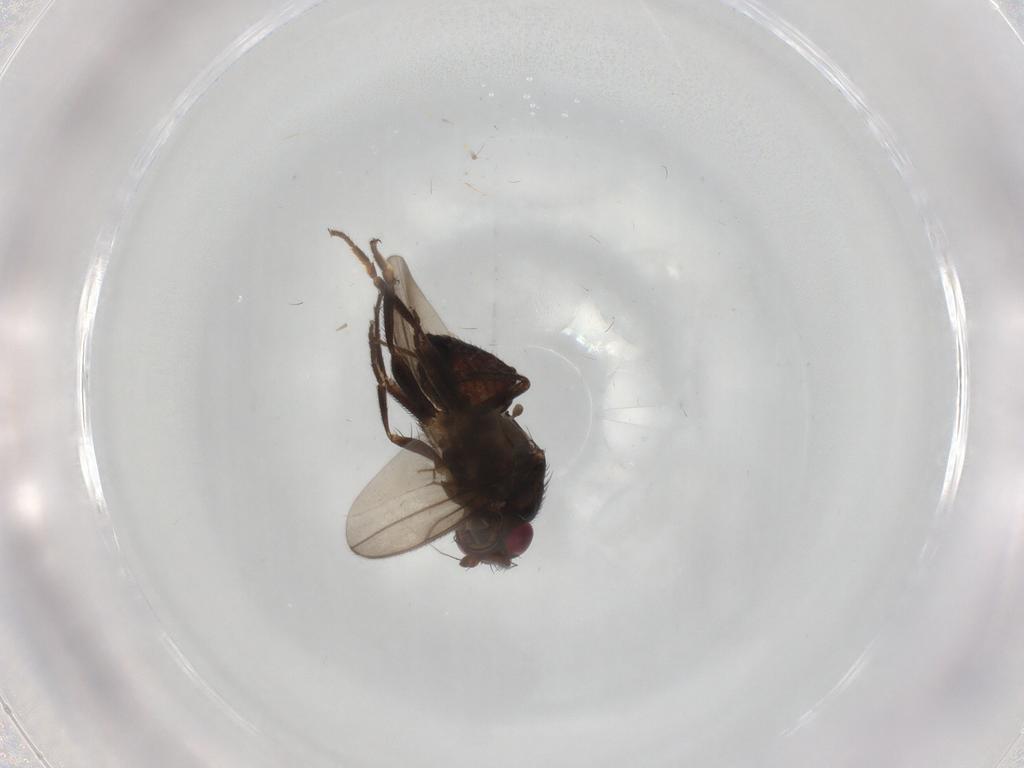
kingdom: Animalia
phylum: Arthropoda
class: Insecta
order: Diptera
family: Sphaeroceridae
